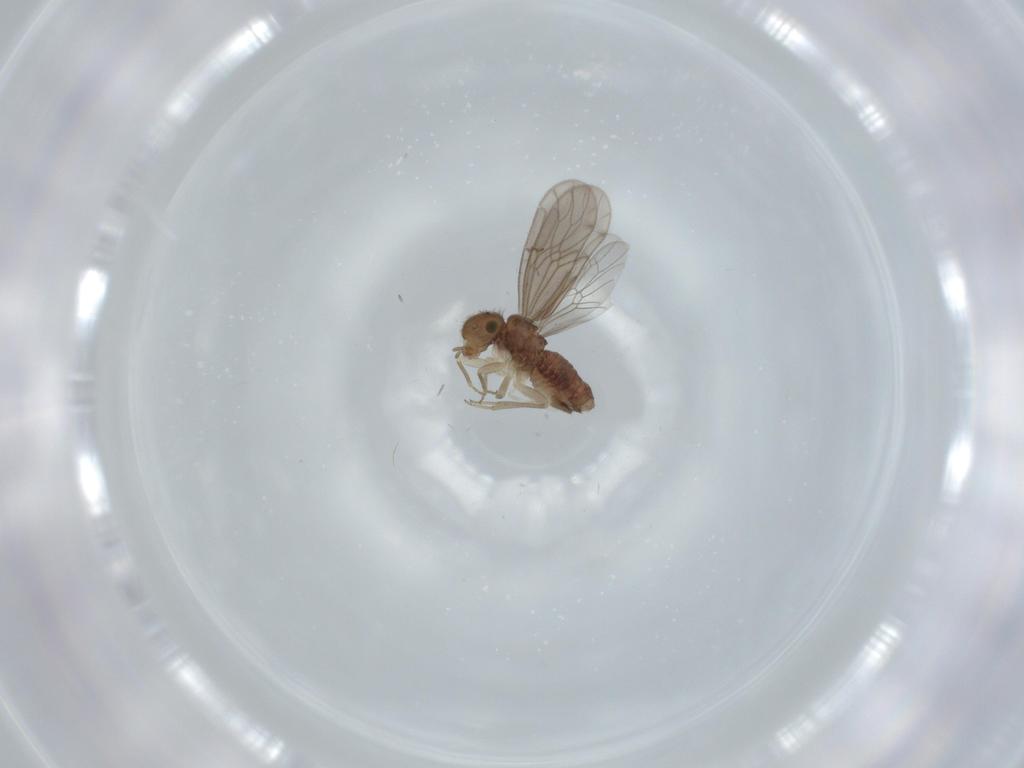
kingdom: Animalia
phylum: Arthropoda
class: Insecta
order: Psocodea
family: Ectopsocidae
